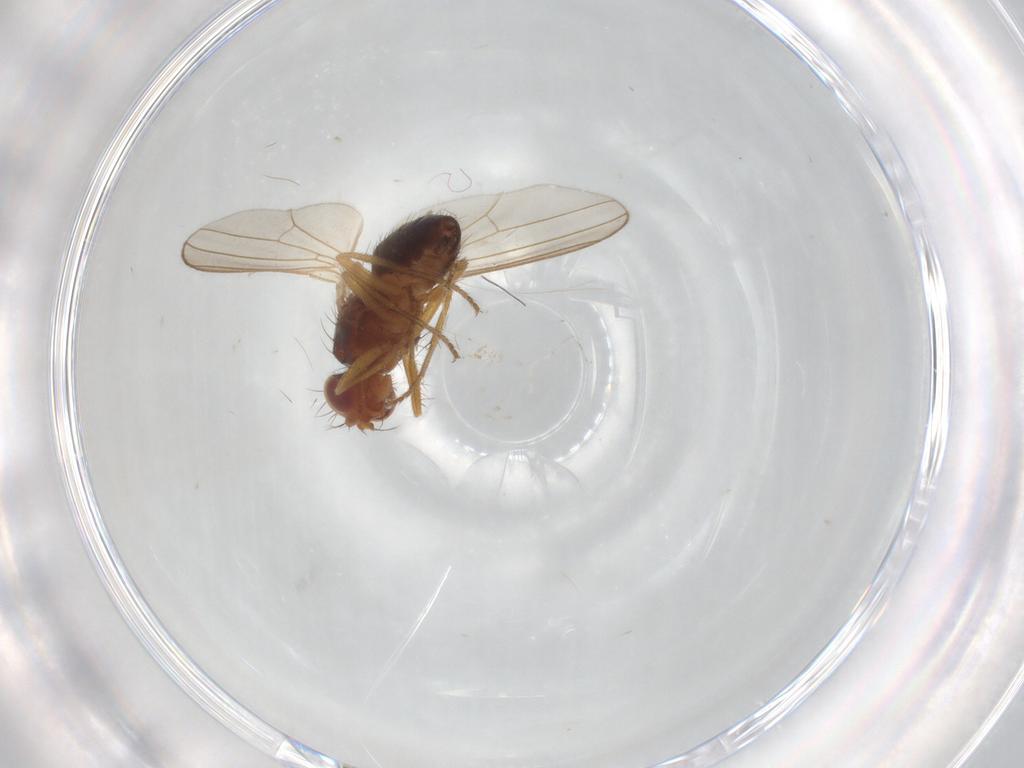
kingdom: Animalia
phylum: Arthropoda
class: Insecta
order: Diptera
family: Drosophilidae
